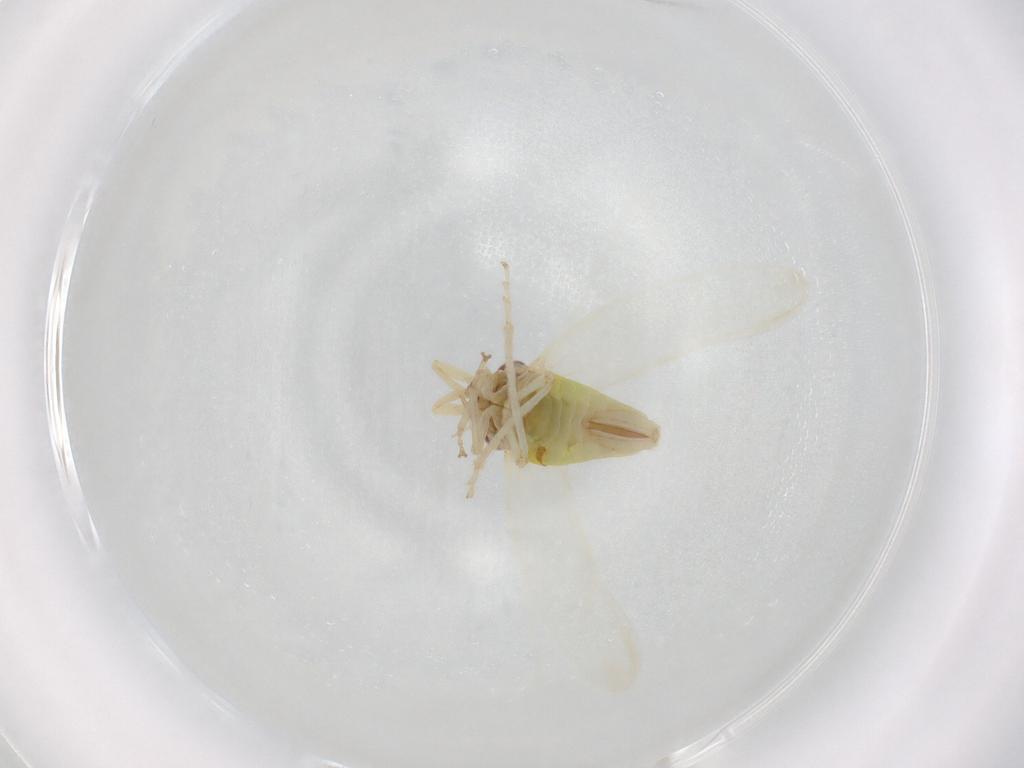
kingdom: Animalia
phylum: Arthropoda
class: Insecta
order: Hemiptera
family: Cicadellidae
